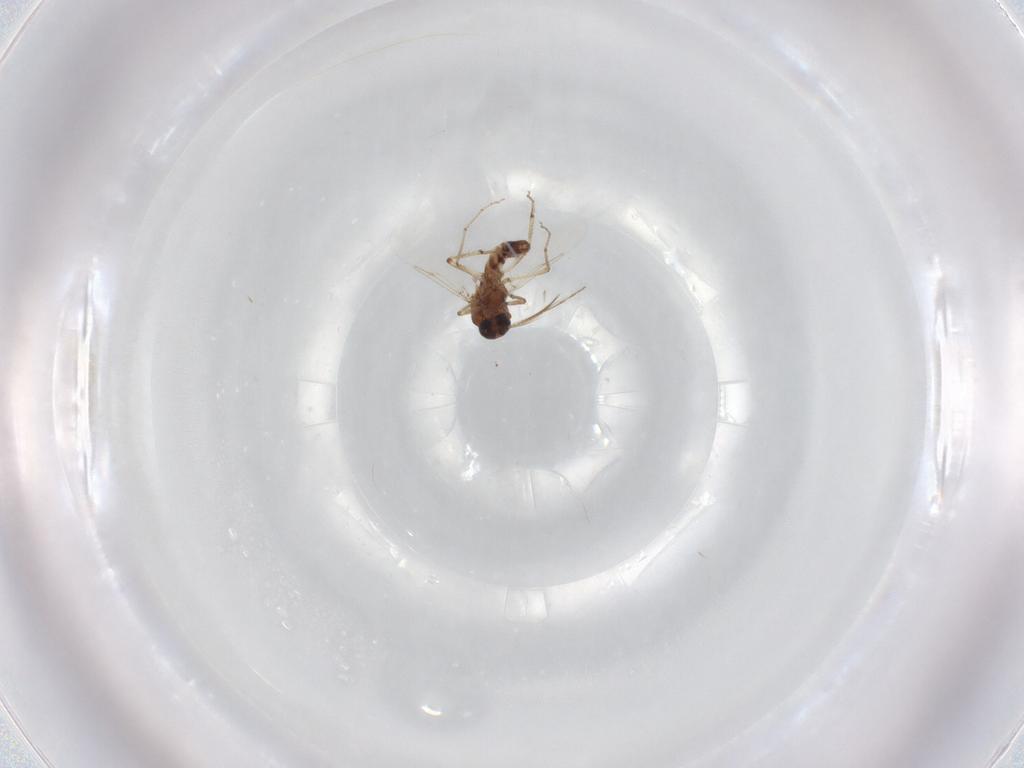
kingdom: Animalia
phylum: Arthropoda
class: Insecta
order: Diptera
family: Ceratopogonidae
